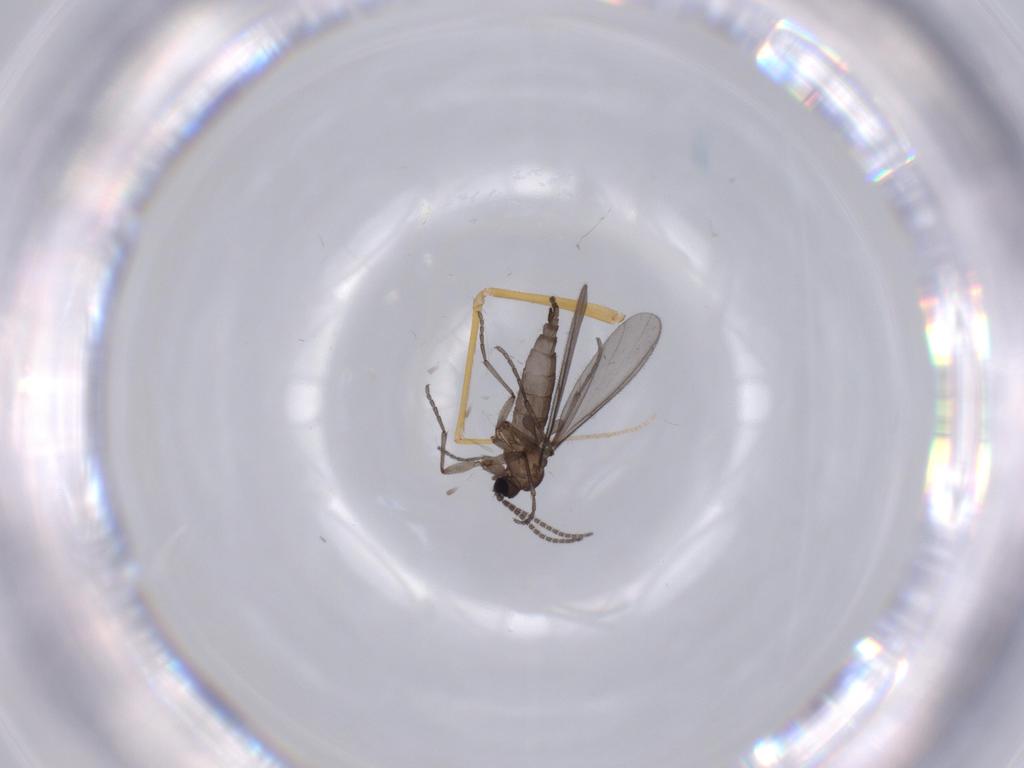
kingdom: Animalia
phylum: Arthropoda
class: Insecta
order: Diptera
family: Sciaridae
